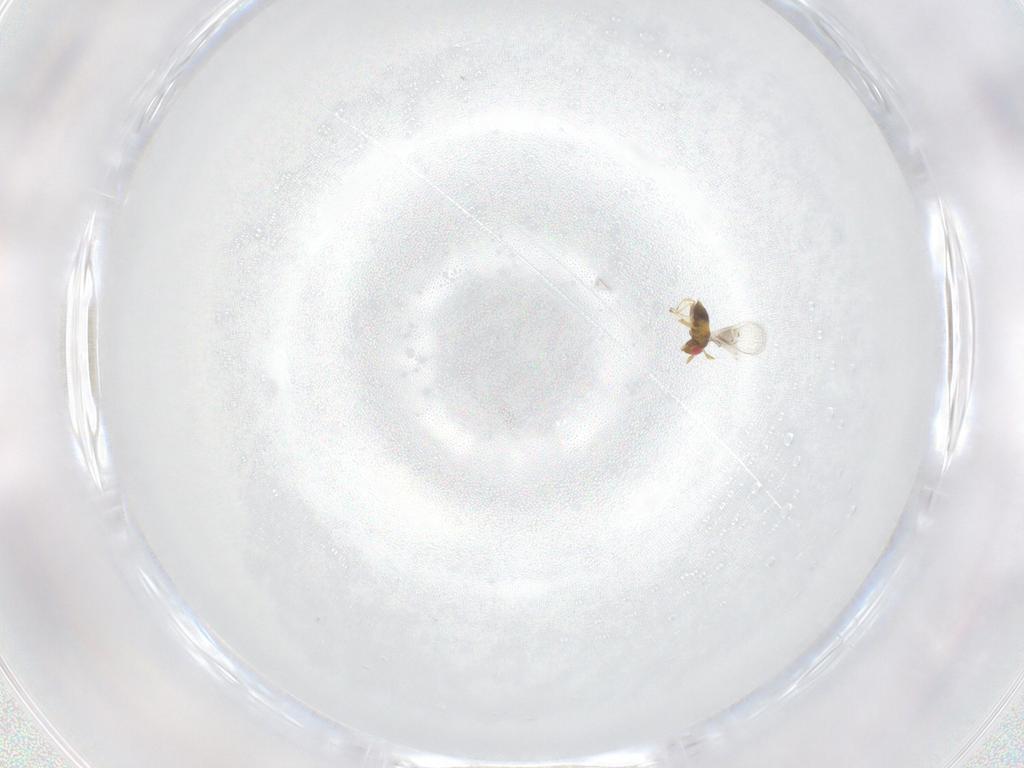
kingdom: Animalia
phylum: Arthropoda
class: Insecta
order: Hymenoptera
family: Trichogrammatidae
